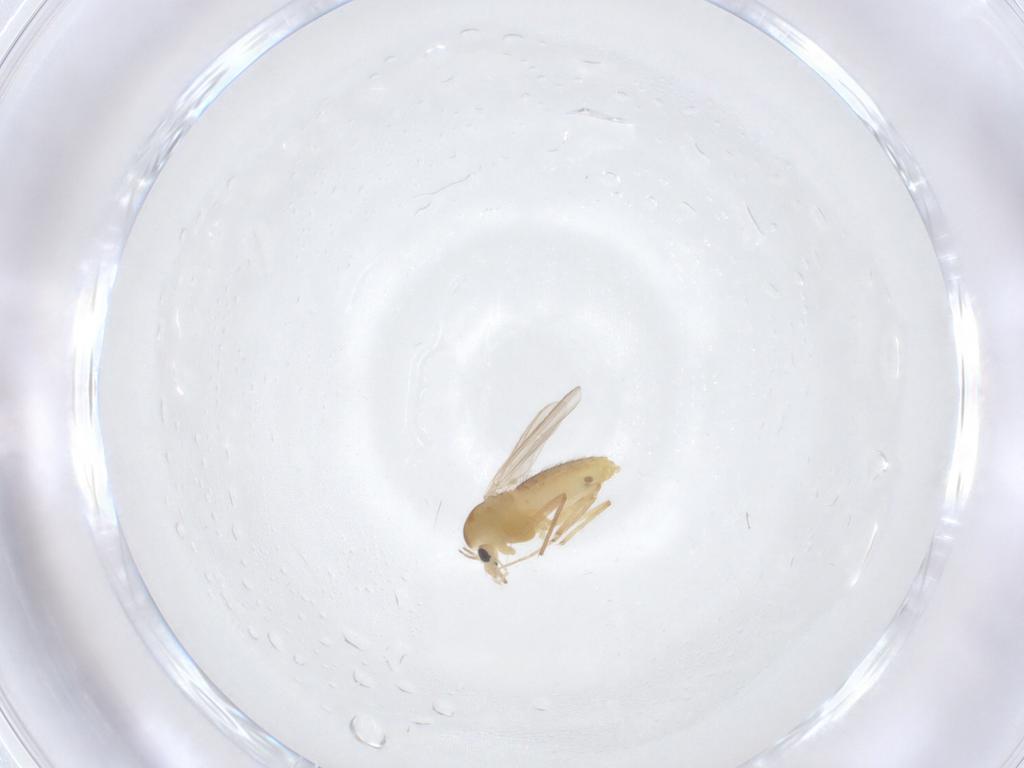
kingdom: Animalia
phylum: Arthropoda
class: Insecta
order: Diptera
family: Chironomidae
